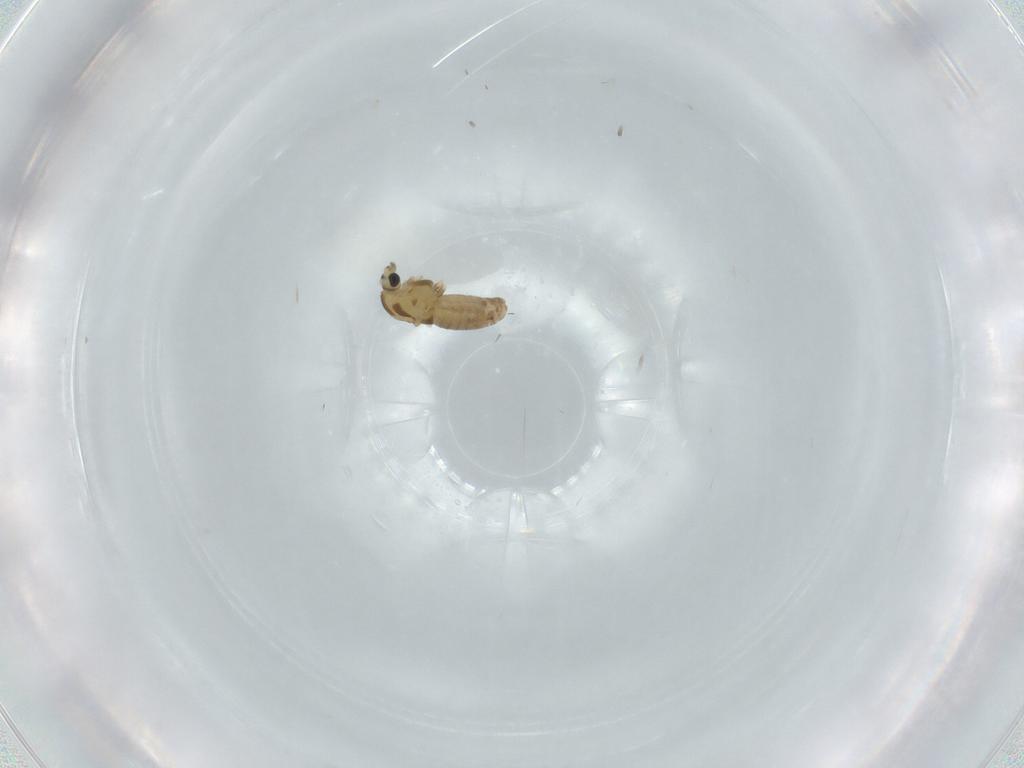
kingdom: Animalia
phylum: Arthropoda
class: Insecta
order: Diptera
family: Chironomidae
